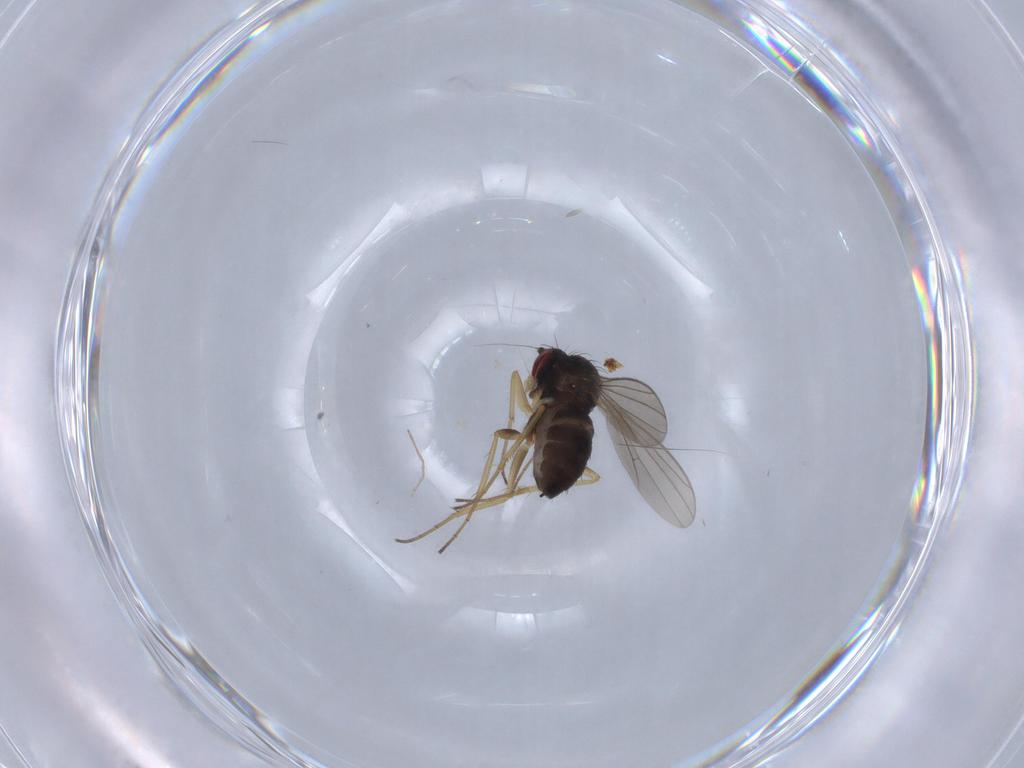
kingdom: Animalia
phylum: Arthropoda
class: Insecta
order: Diptera
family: Dolichopodidae
